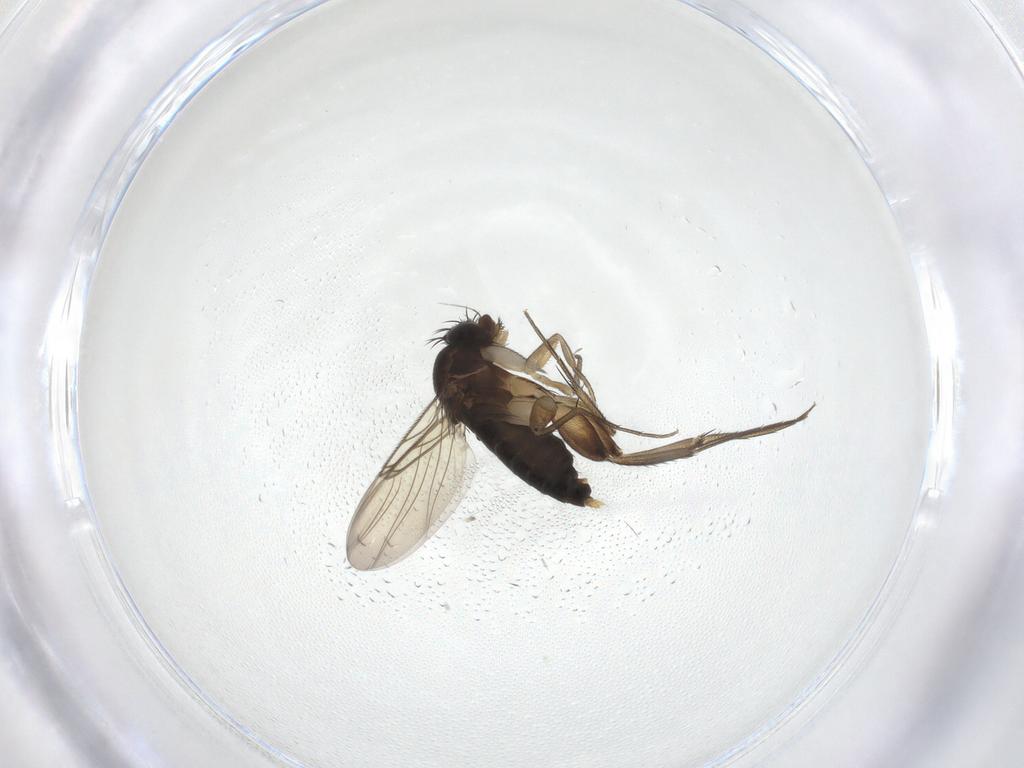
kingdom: Animalia
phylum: Arthropoda
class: Insecta
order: Diptera
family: Phoridae
